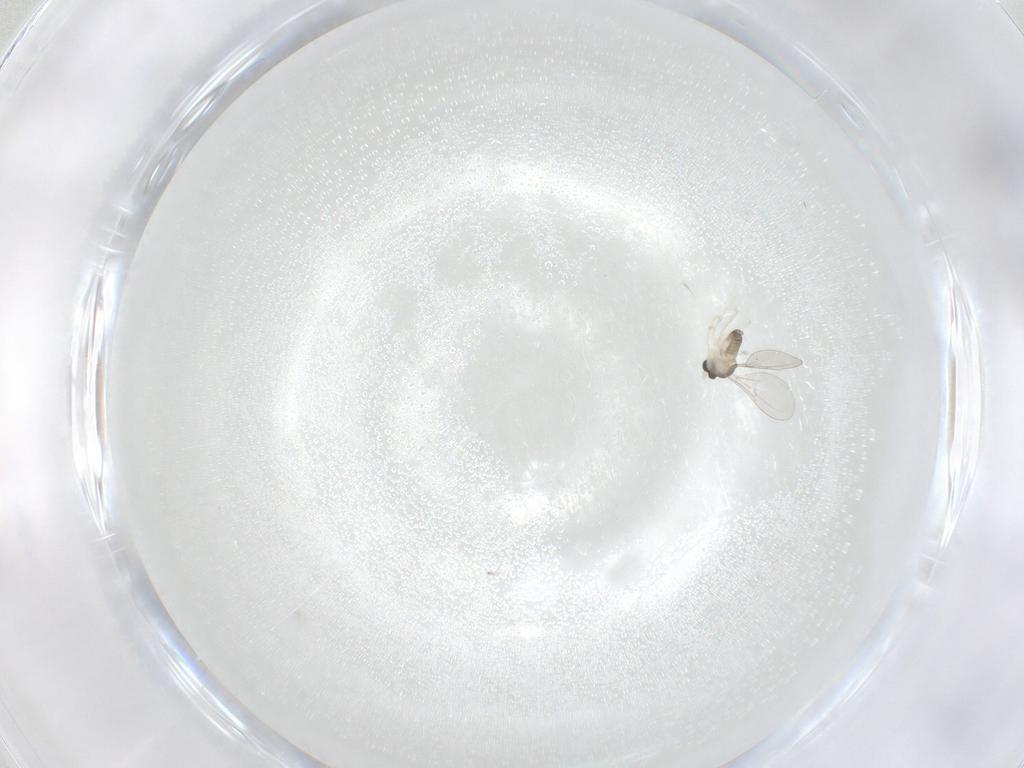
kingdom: Animalia
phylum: Arthropoda
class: Insecta
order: Diptera
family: Cecidomyiidae
